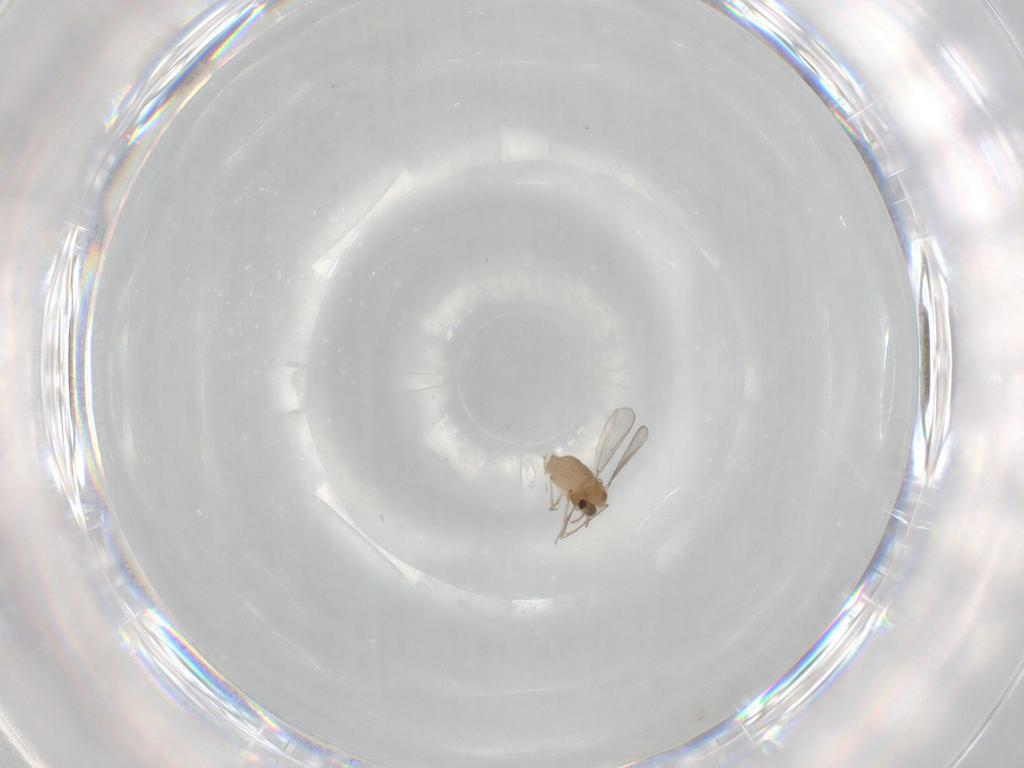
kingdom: Animalia
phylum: Arthropoda
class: Insecta
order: Diptera
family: Chironomidae
